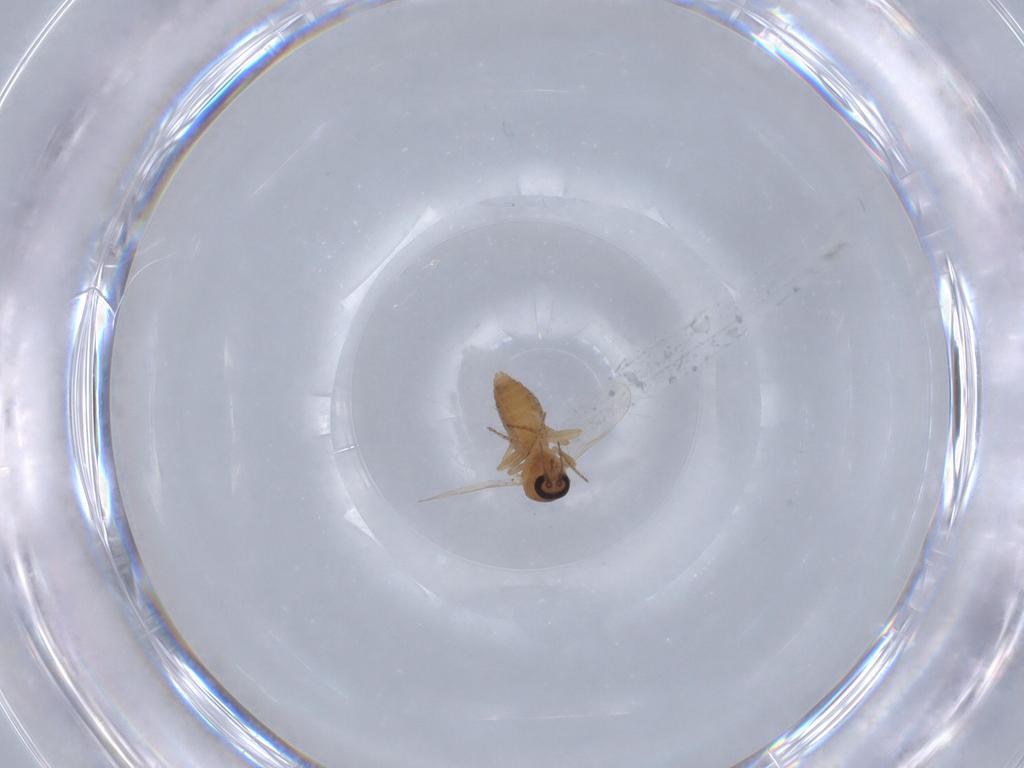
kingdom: Animalia
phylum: Arthropoda
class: Insecta
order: Diptera
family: Ceratopogonidae
